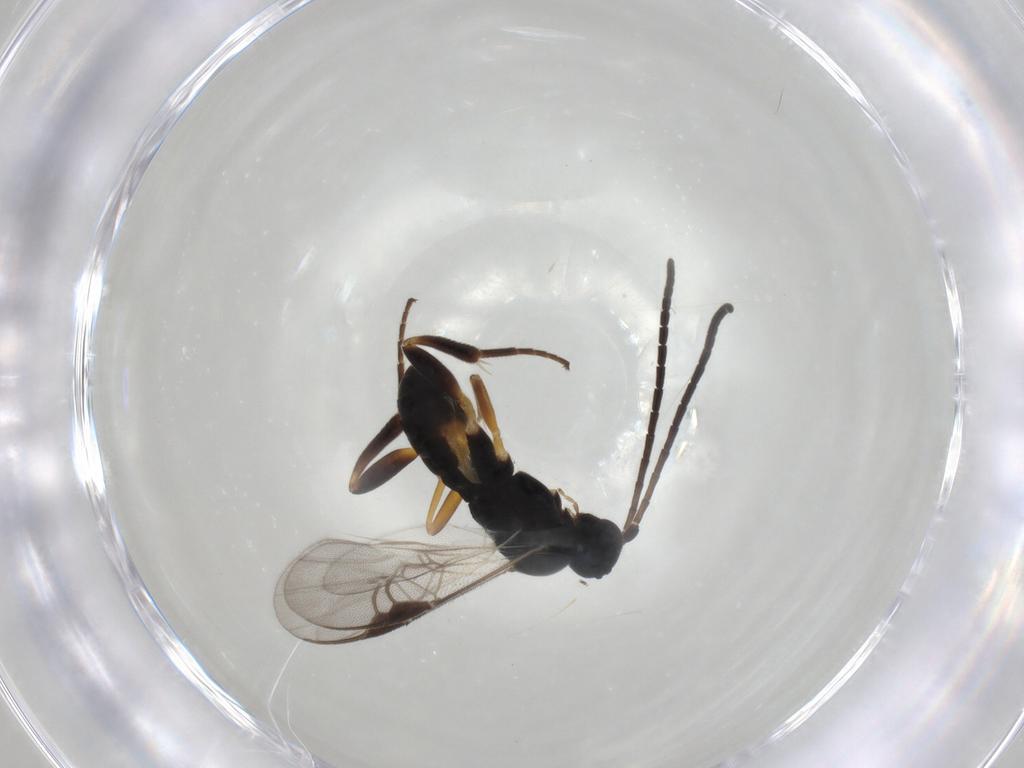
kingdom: Animalia
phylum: Arthropoda
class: Insecta
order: Hymenoptera
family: Braconidae
